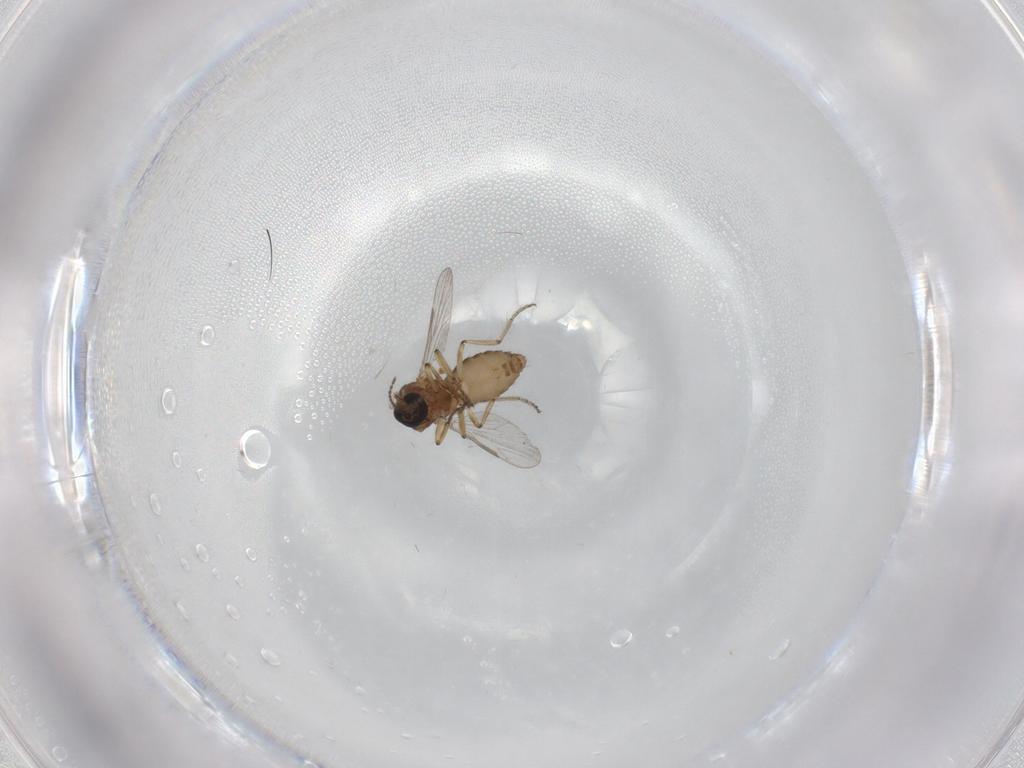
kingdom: Animalia
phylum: Arthropoda
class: Insecta
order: Diptera
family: Ceratopogonidae
